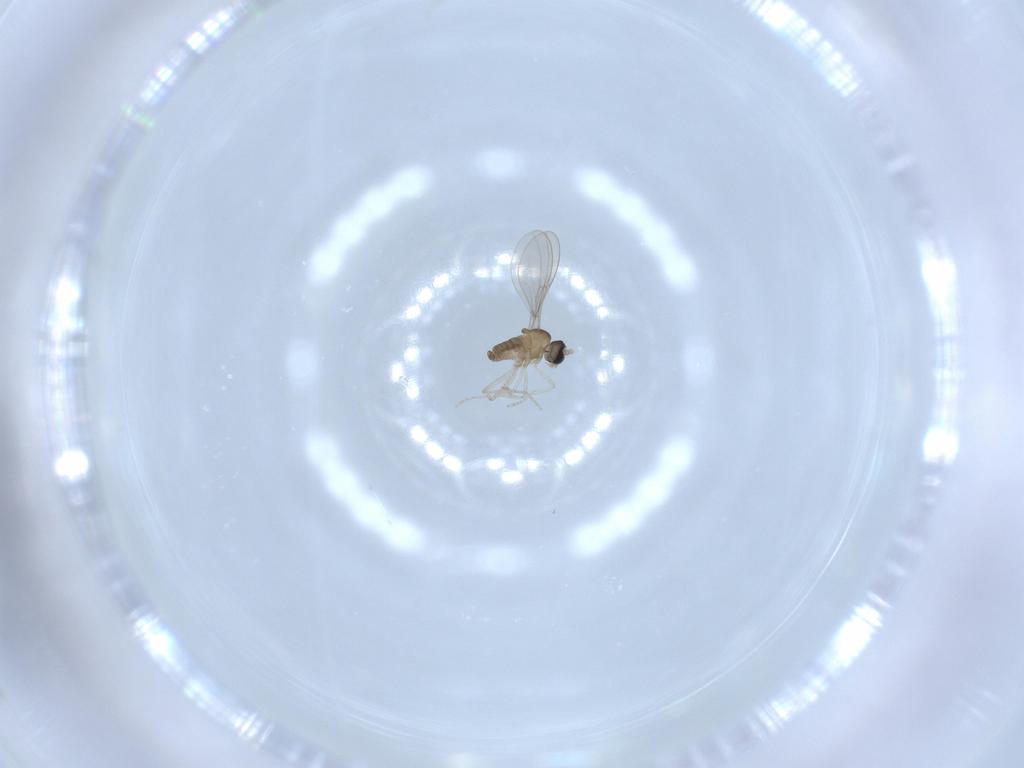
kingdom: Animalia
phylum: Arthropoda
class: Insecta
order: Diptera
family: Cecidomyiidae
